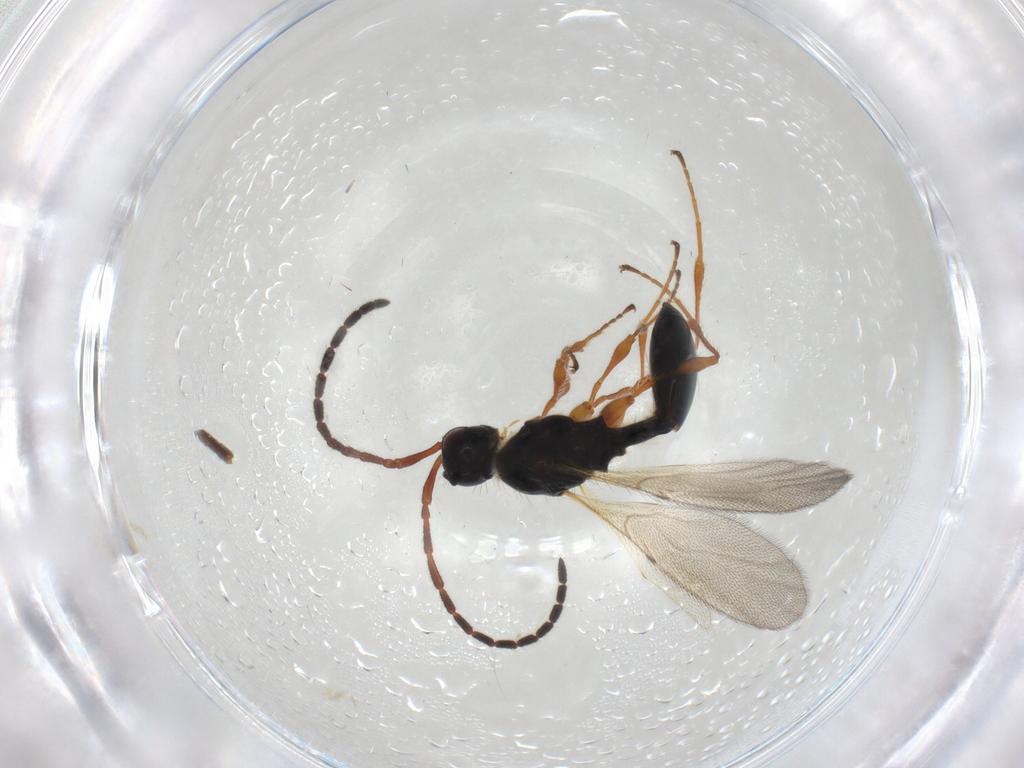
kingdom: Animalia
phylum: Arthropoda
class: Insecta
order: Hymenoptera
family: Diapriidae
